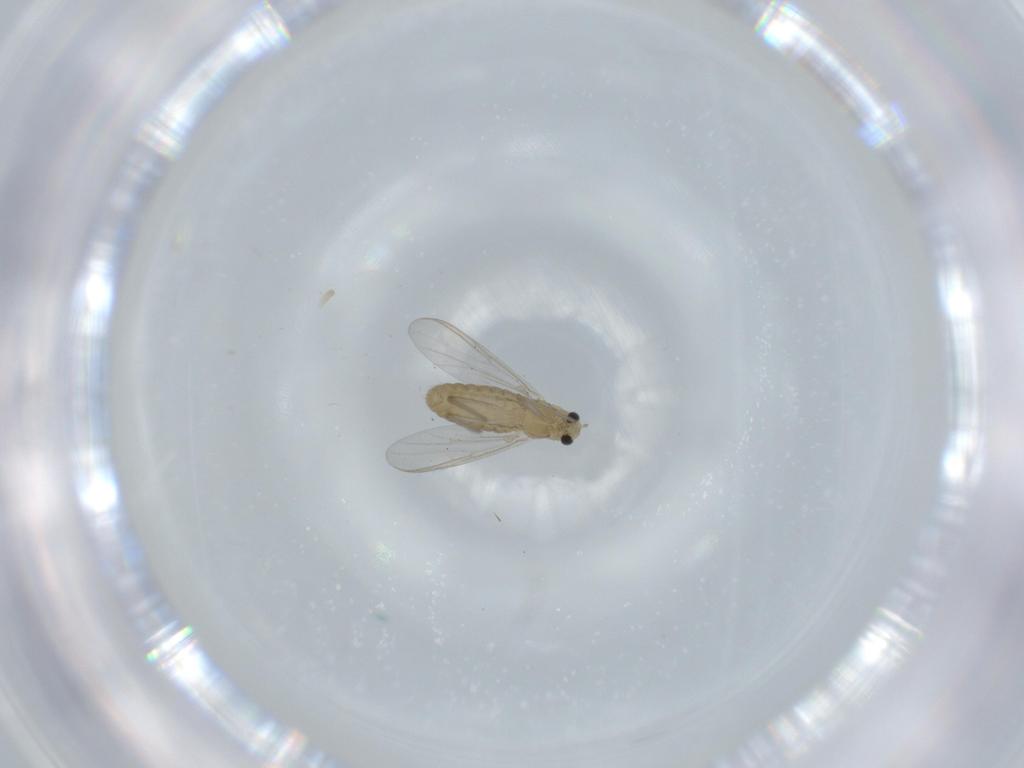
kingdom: Animalia
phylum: Arthropoda
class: Insecta
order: Diptera
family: Chironomidae
